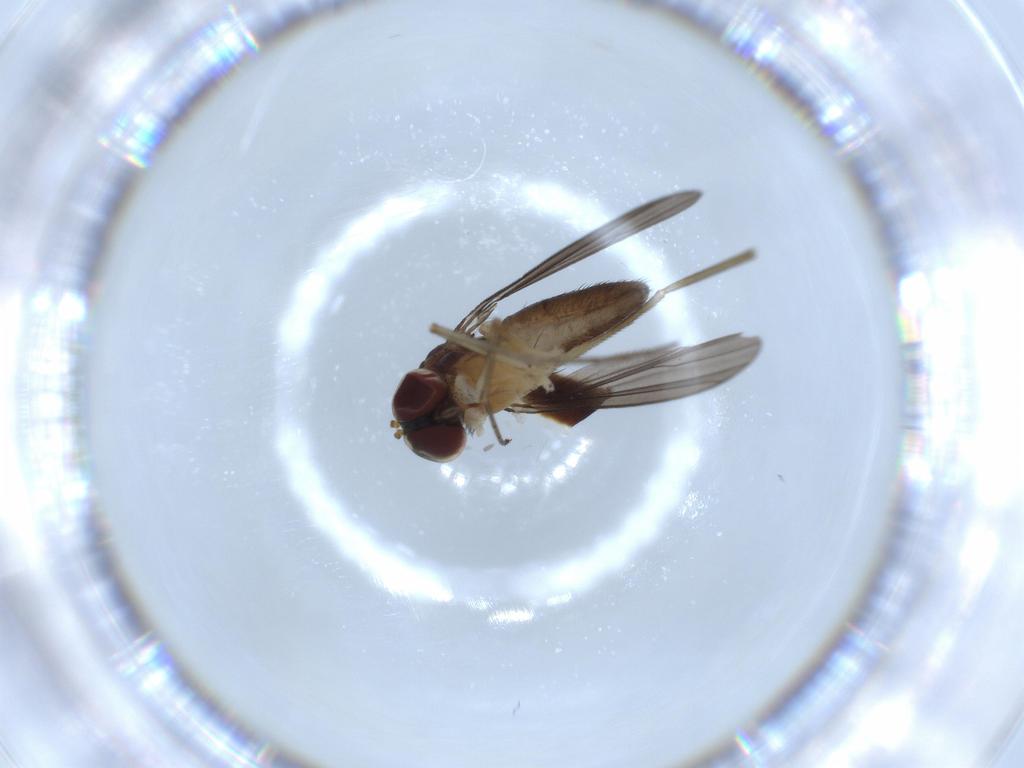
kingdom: Animalia
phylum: Arthropoda
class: Insecta
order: Diptera
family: Dolichopodidae
